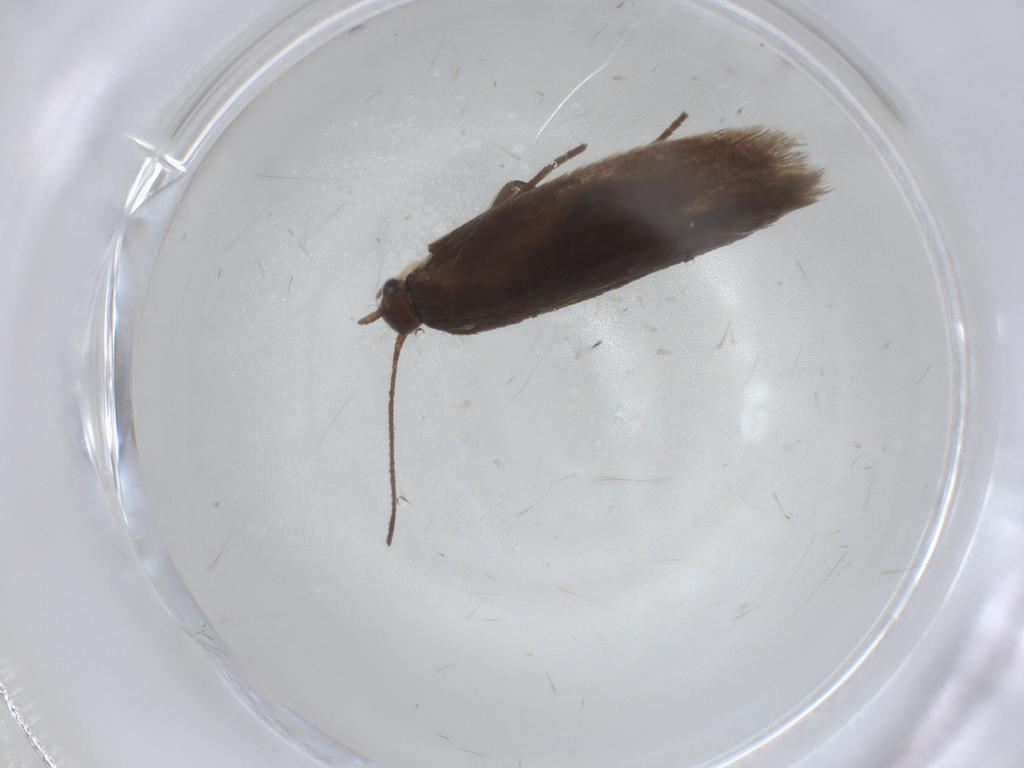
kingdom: Animalia
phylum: Arthropoda
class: Insecta
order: Lepidoptera
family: Limacodidae
